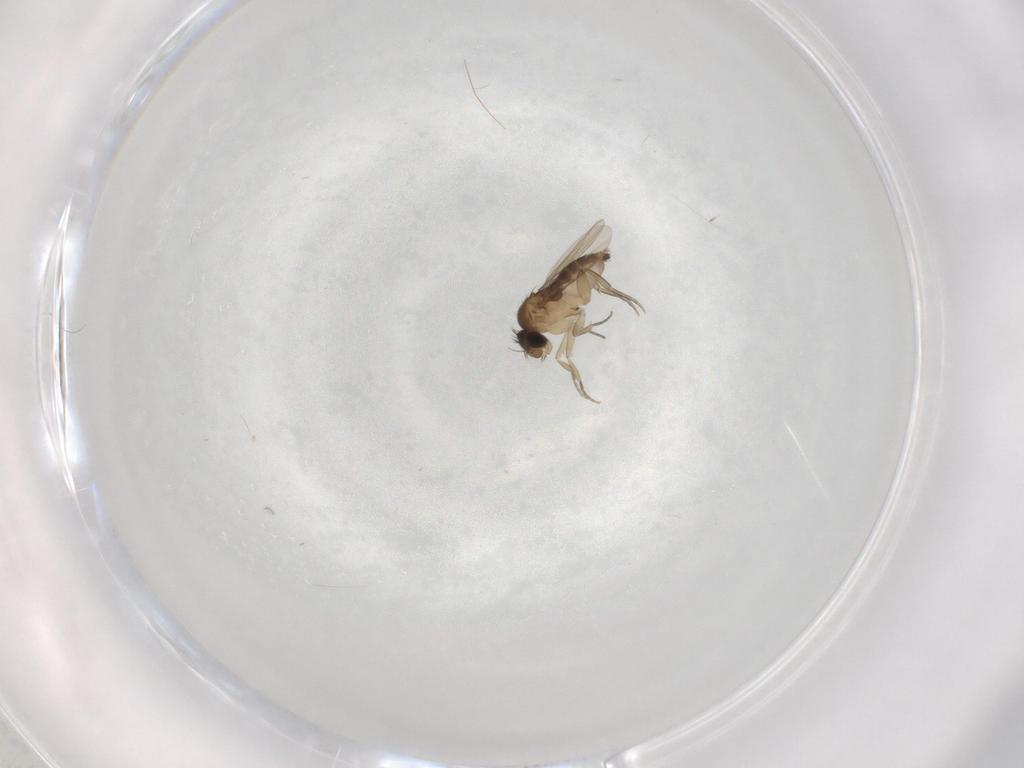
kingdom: Animalia
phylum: Arthropoda
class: Insecta
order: Diptera
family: Phoridae
